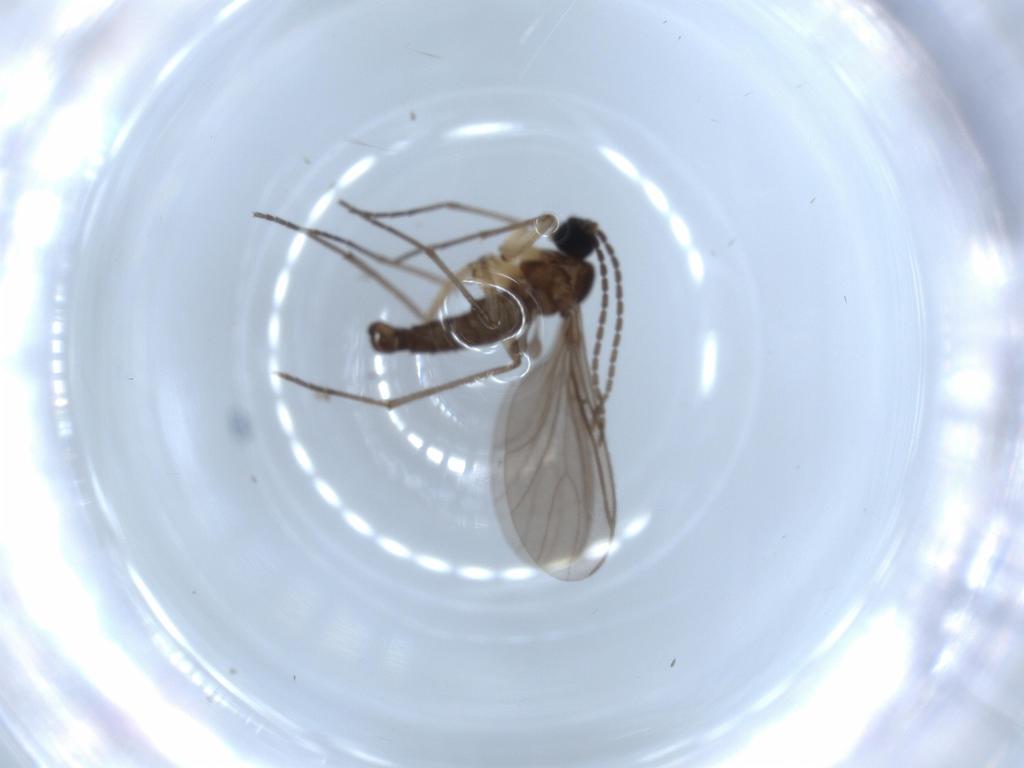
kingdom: Animalia
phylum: Arthropoda
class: Insecta
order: Diptera
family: Sciaridae
